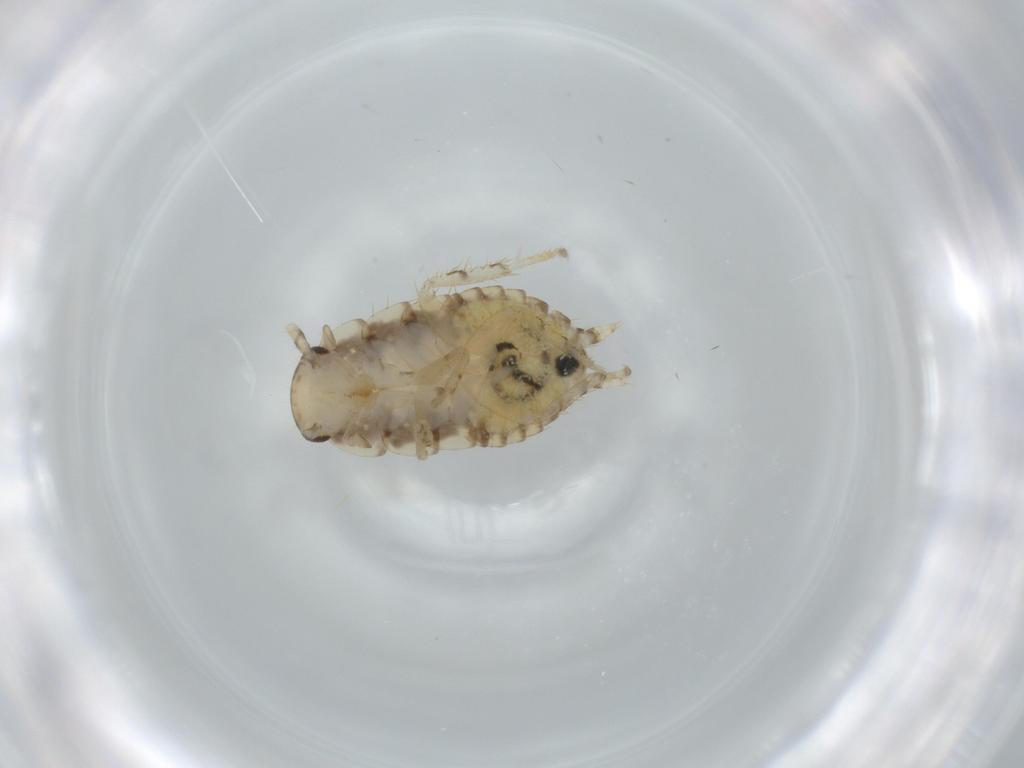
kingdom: Animalia
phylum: Arthropoda
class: Insecta
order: Blattodea
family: Ectobiidae
